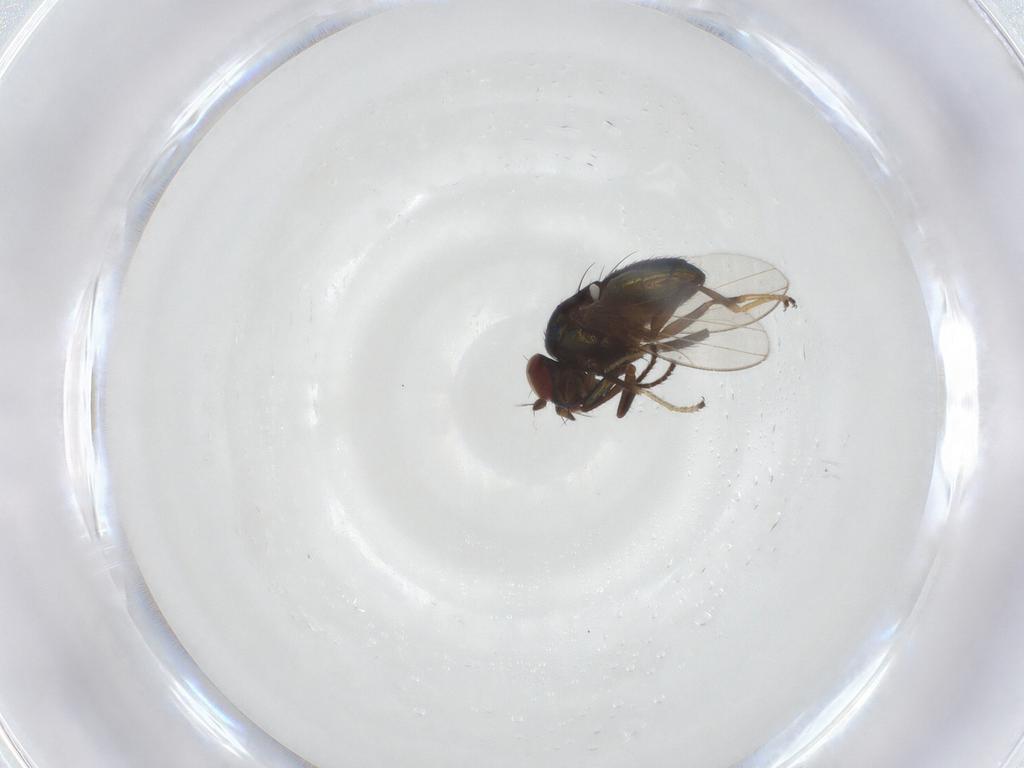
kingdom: Animalia
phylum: Arthropoda
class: Insecta
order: Diptera
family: Ephydridae
